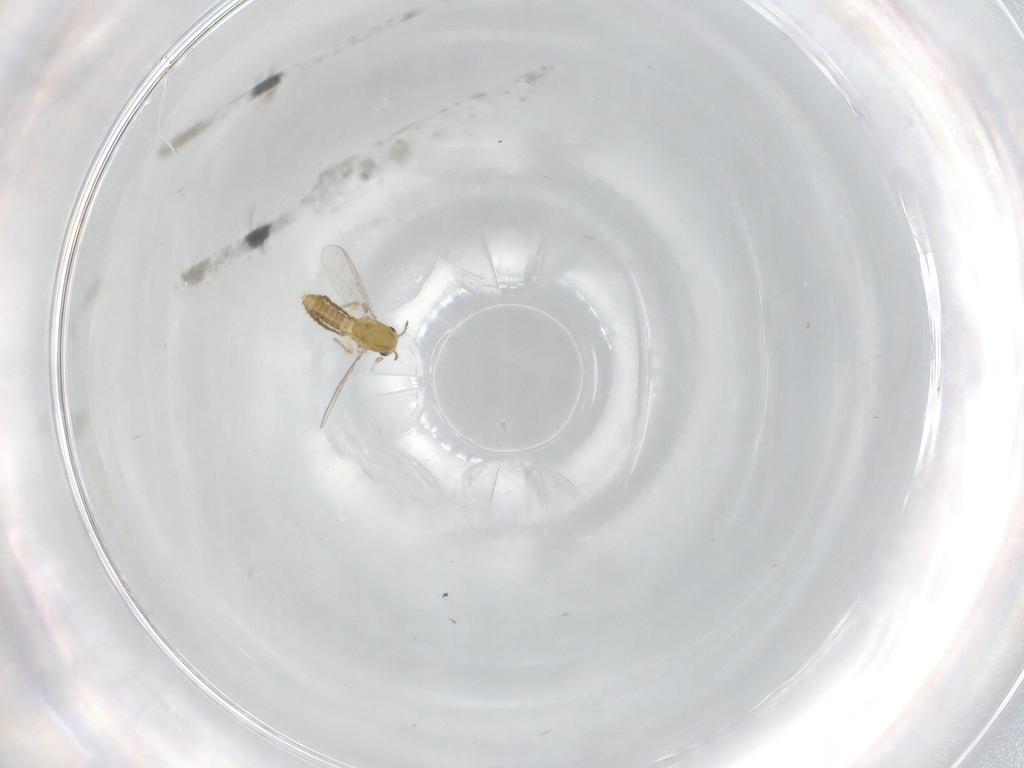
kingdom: Animalia
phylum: Arthropoda
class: Insecta
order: Diptera
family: Chironomidae
